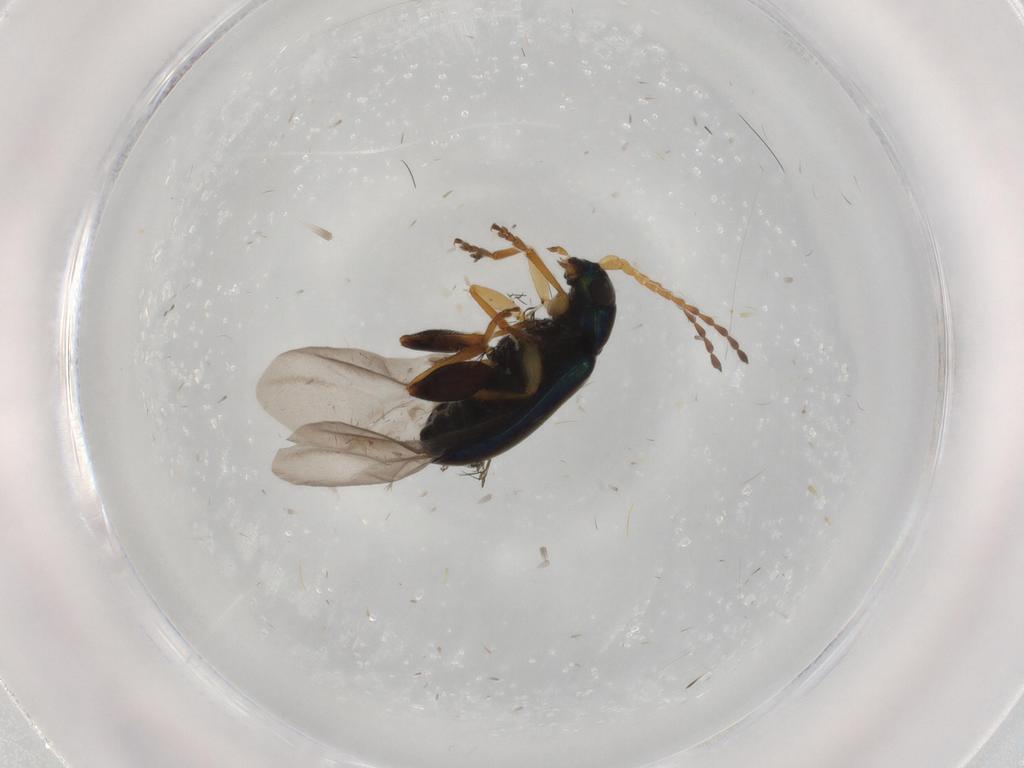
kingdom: Animalia
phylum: Arthropoda
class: Insecta
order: Coleoptera
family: Chrysomelidae
